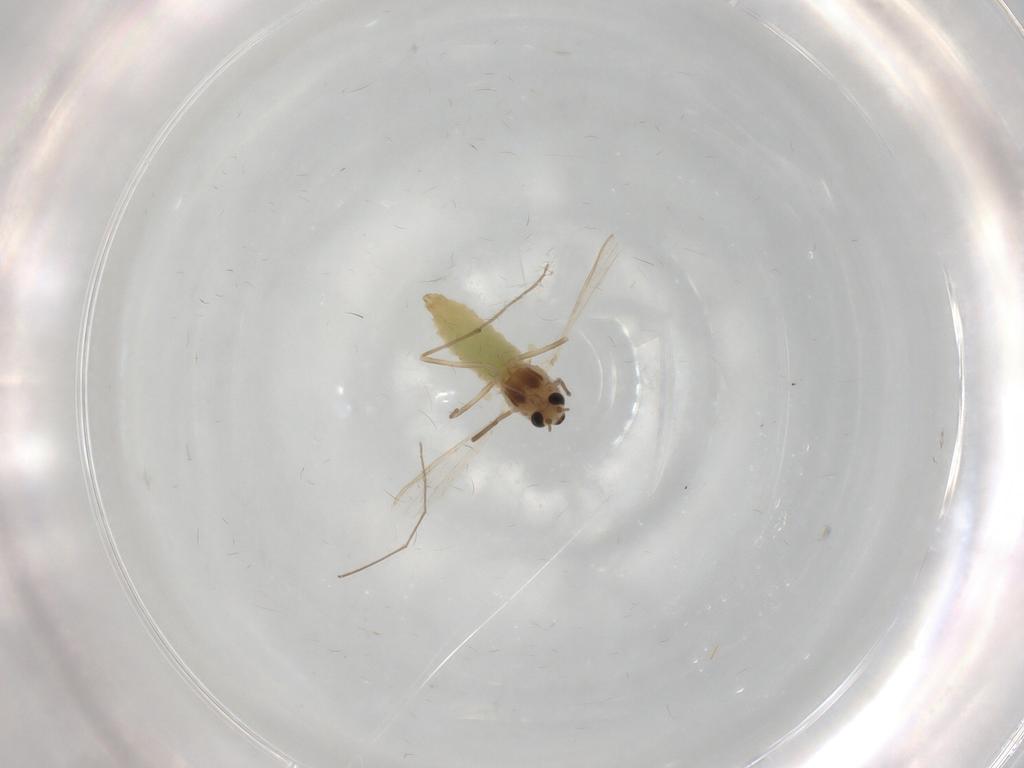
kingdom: Animalia
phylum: Arthropoda
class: Insecta
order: Diptera
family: Chironomidae
